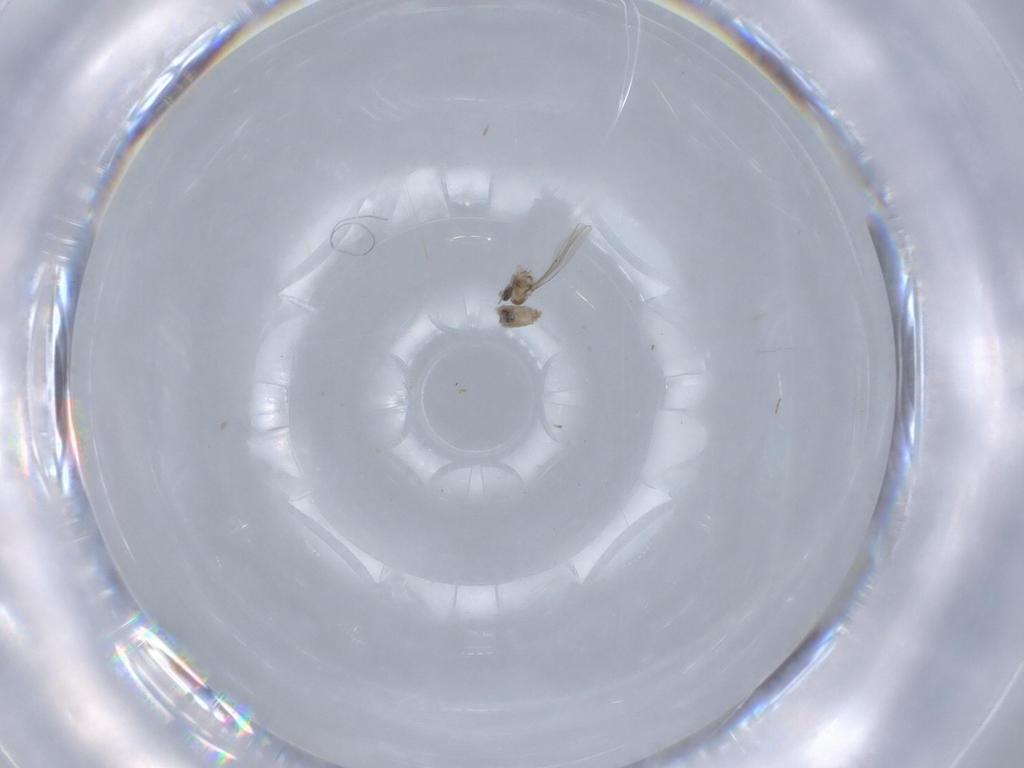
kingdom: Animalia
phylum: Arthropoda
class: Insecta
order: Diptera
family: Cecidomyiidae
